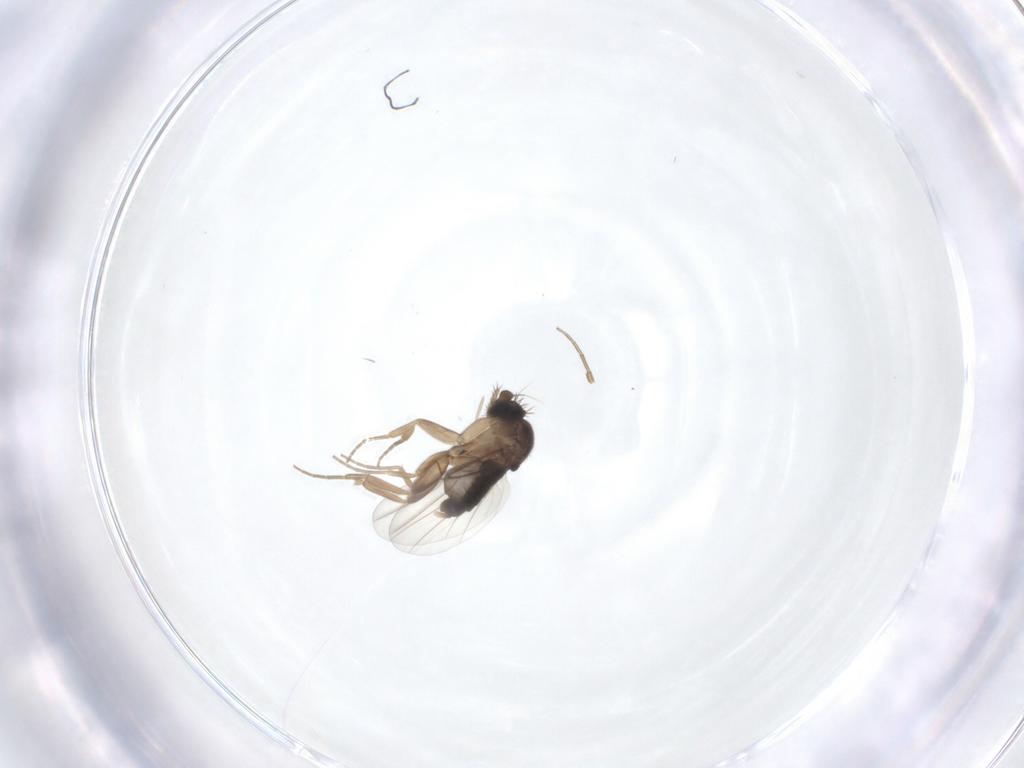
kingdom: Animalia
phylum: Arthropoda
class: Insecta
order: Diptera
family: Phoridae
